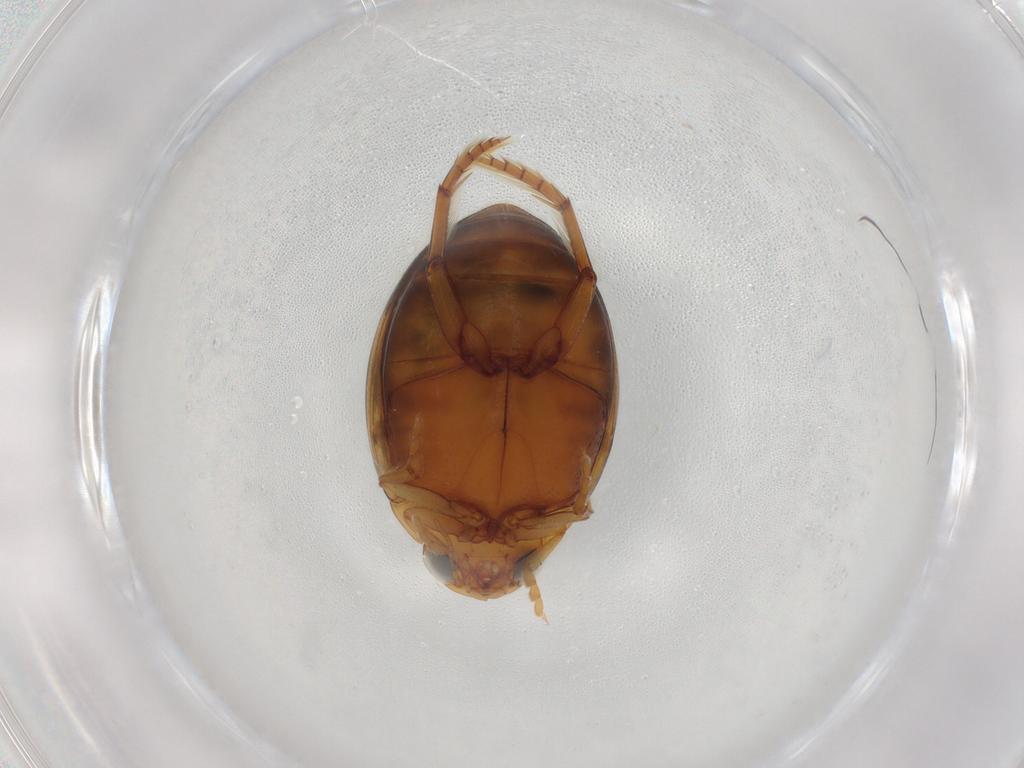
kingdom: Animalia
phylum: Arthropoda
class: Insecta
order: Coleoptera
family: Dytiscidae
